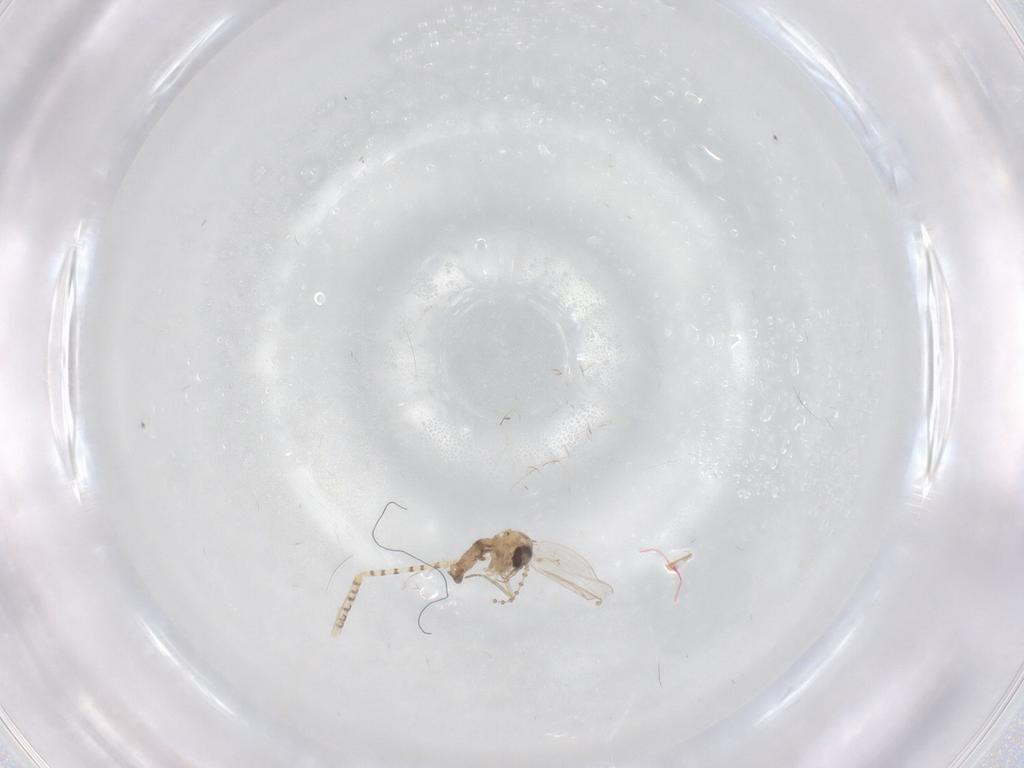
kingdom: Animalia
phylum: Arthropoda
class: Insecta
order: Diptera
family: Psychodidae
